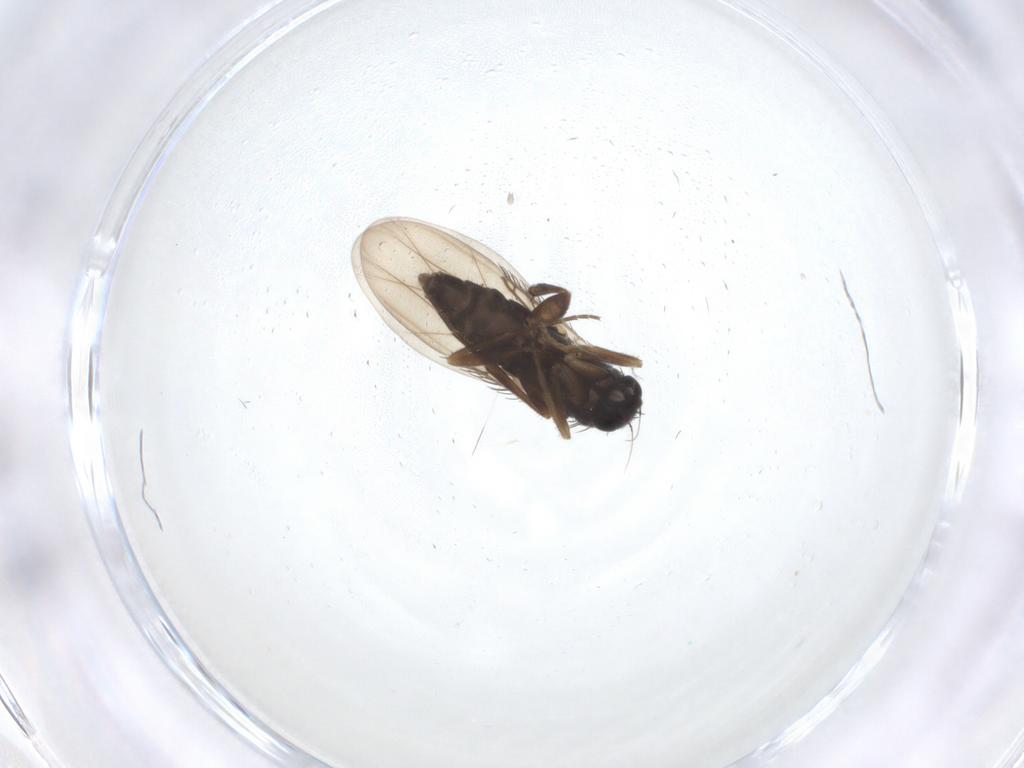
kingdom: Animalia
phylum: Arthropoda
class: Insecta
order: Diptera
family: Phoridae
